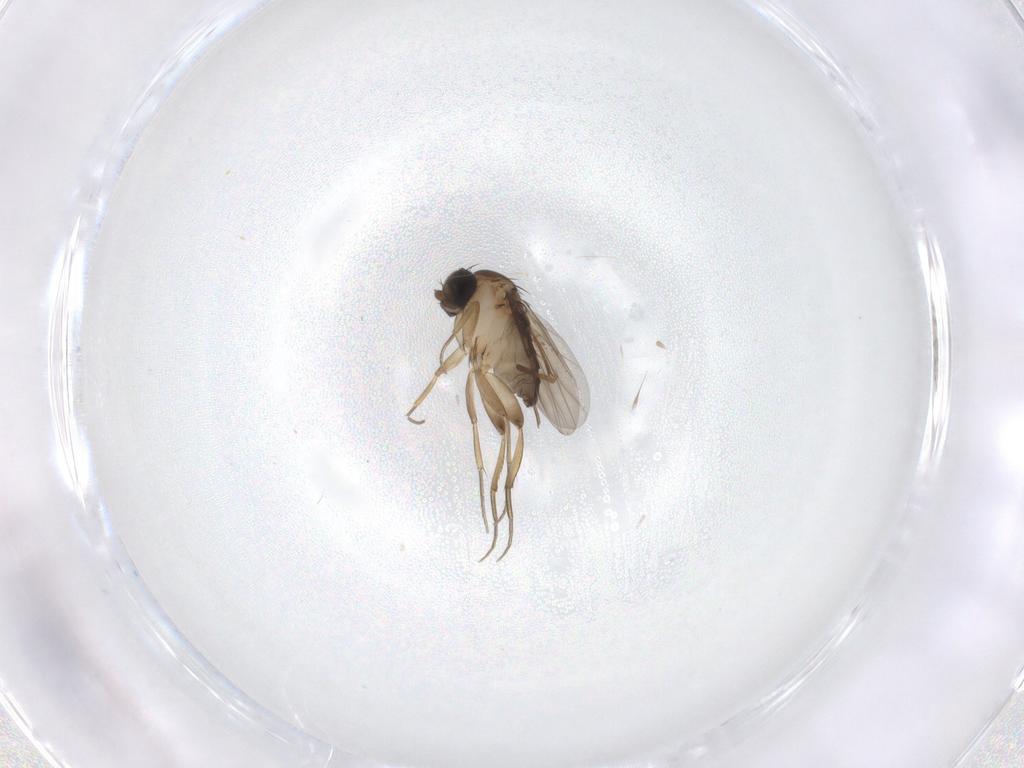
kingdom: Animalia
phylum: Arthropoda
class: Insecta
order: Diptera
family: Phoridae
